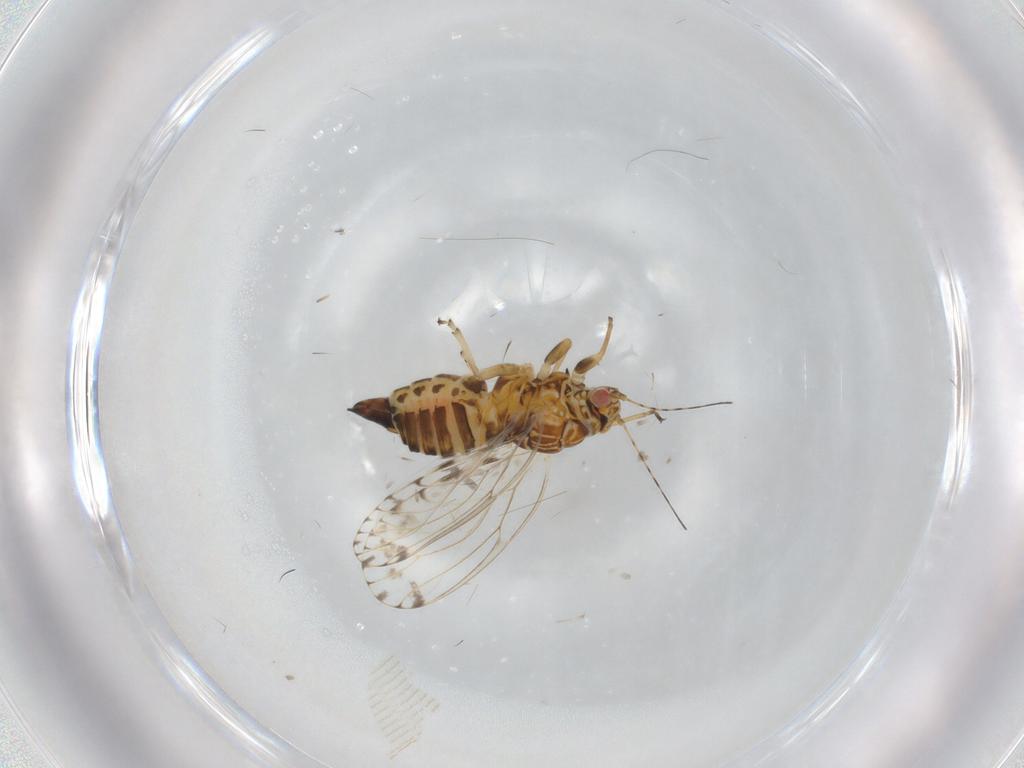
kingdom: Animalia
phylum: Arthropoda
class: Insecta
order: Hemiptera
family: Psyllidae
